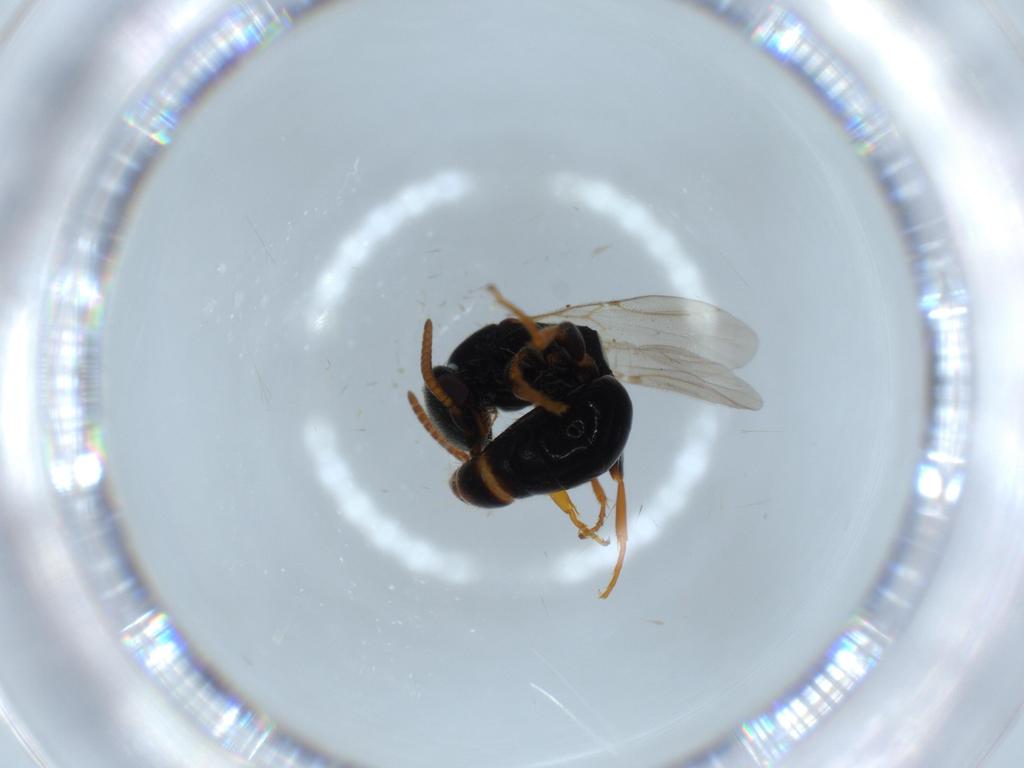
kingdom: Animalia
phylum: Arthropoda
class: Insecta
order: Hymenoptera
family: Bethylidae
